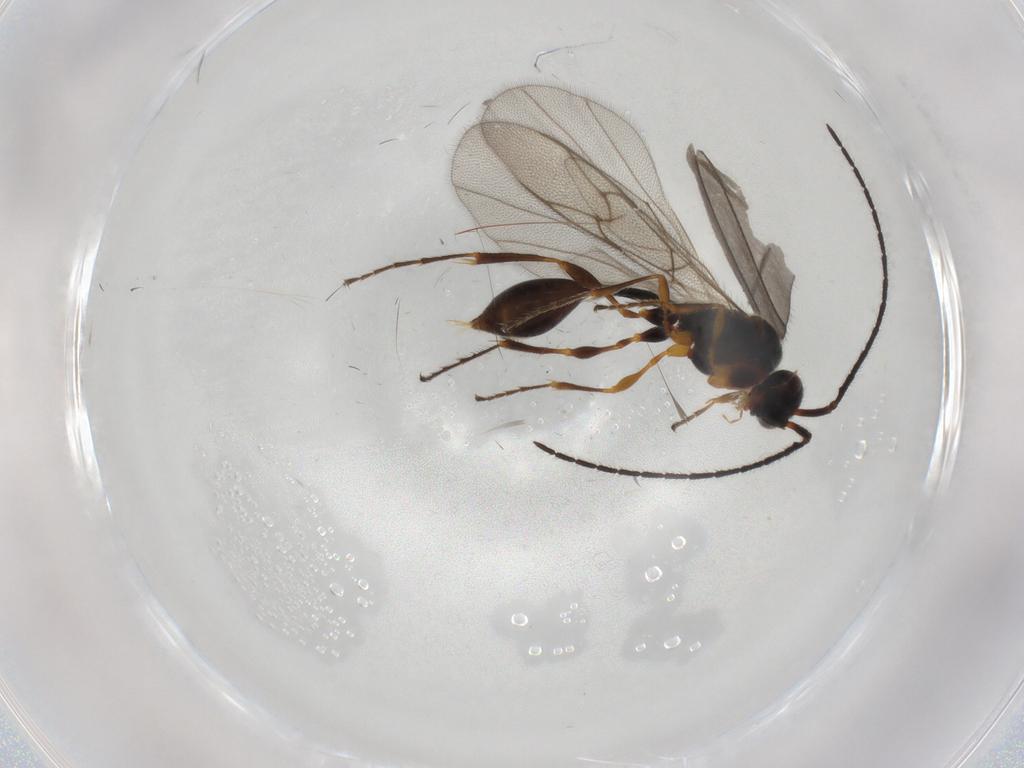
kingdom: Animalia
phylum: Arthropoda
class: Insecta
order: Hymenoptera
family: Diapriidae
